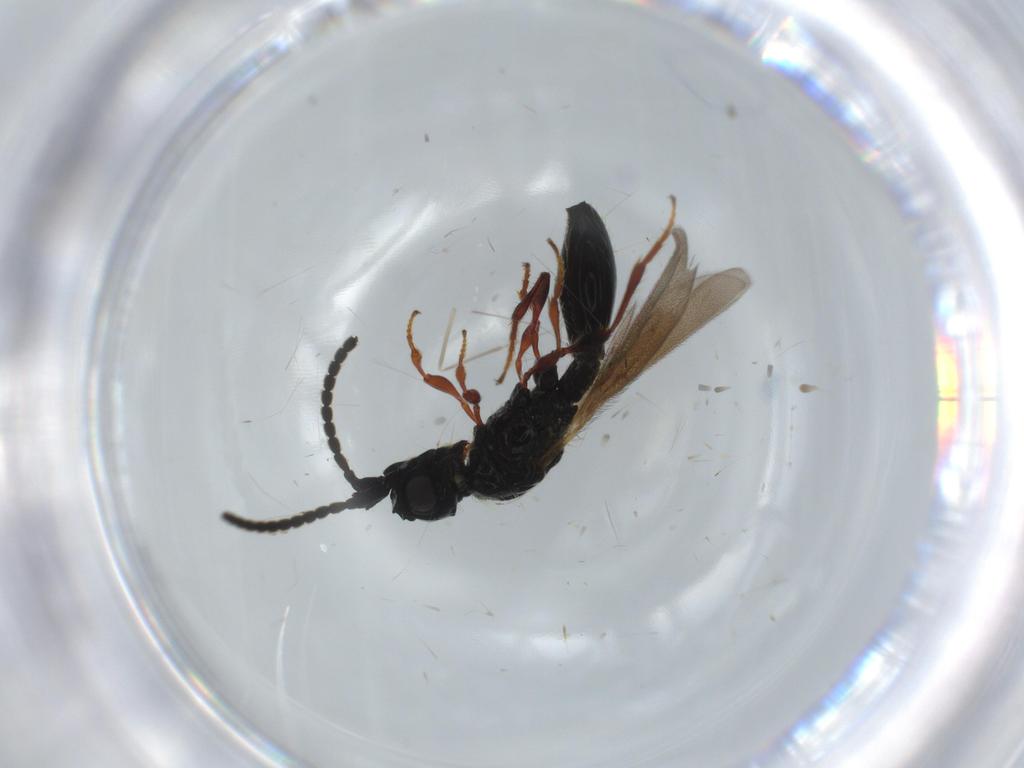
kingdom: Animalia
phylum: Arthropoda
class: Insecta
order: Hymenoptera
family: Diapriidae
